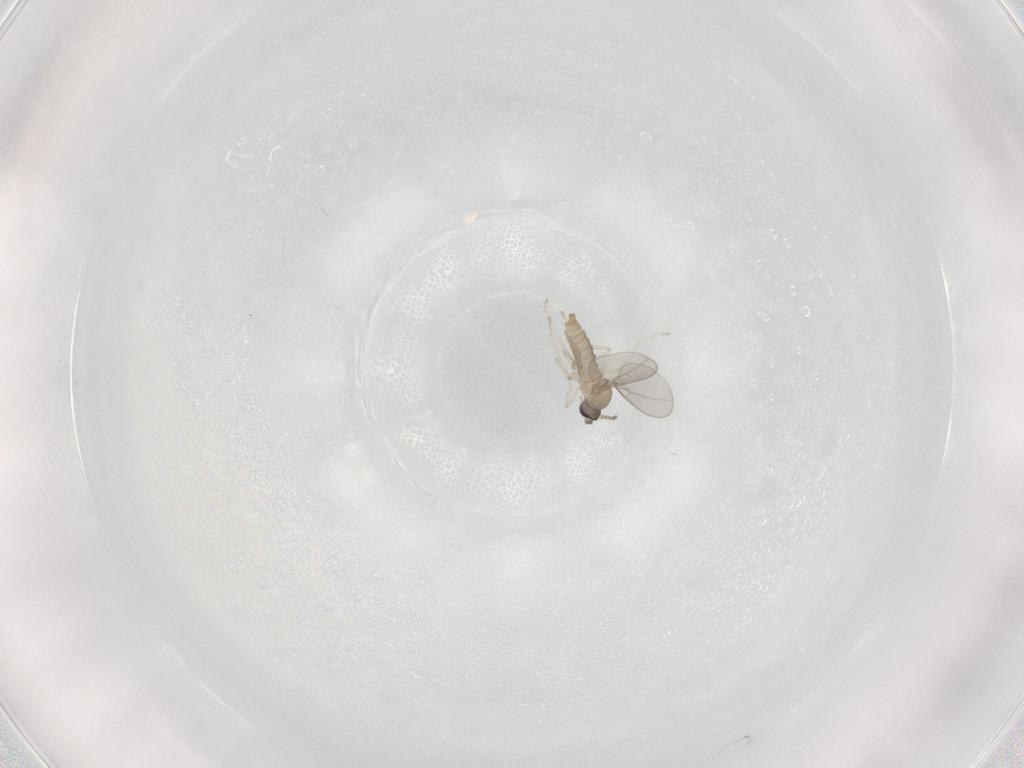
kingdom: Animalia
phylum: Arthropoda
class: Insecta
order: Diptera
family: Cecidomyiidae
